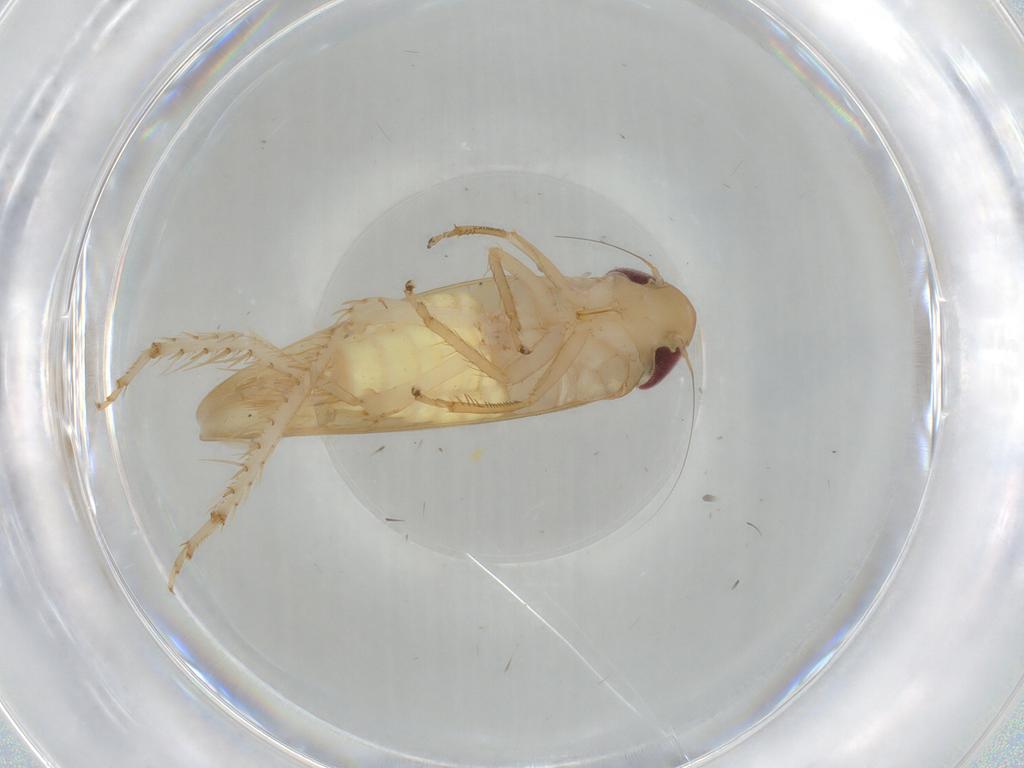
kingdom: Animalia
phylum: Arthropoda
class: Insecta
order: Hemiptera
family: Cicadellidae
